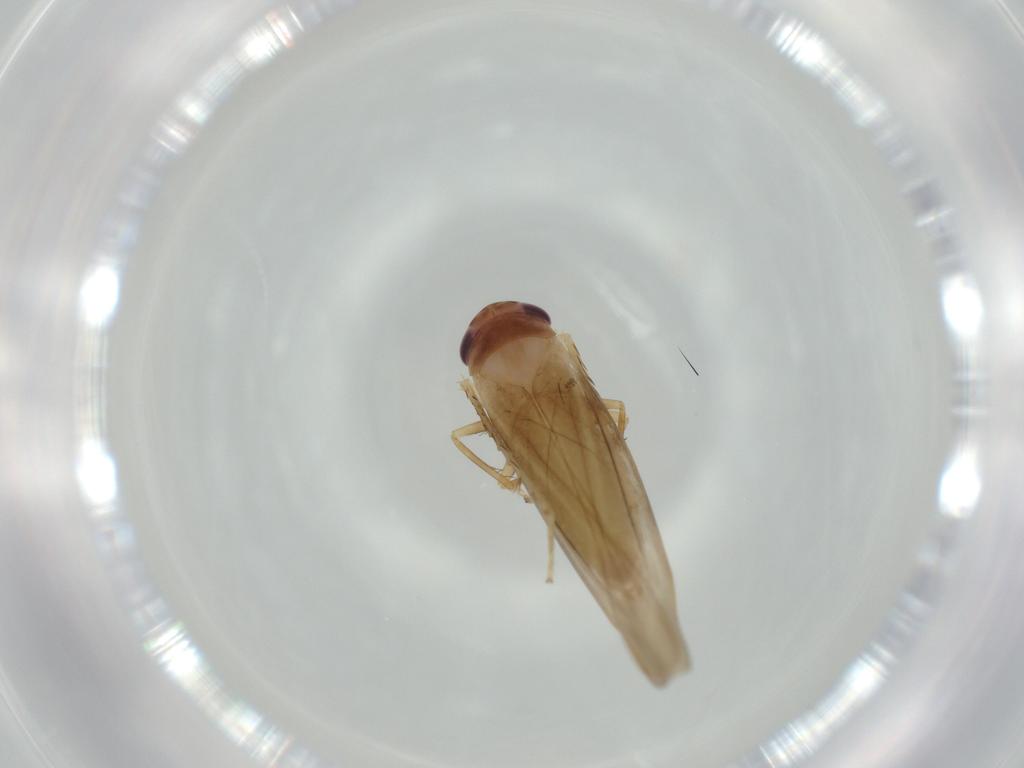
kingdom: Animalia
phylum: Arthropoda
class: Insecta
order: Hemiptera
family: Cicadellidae
